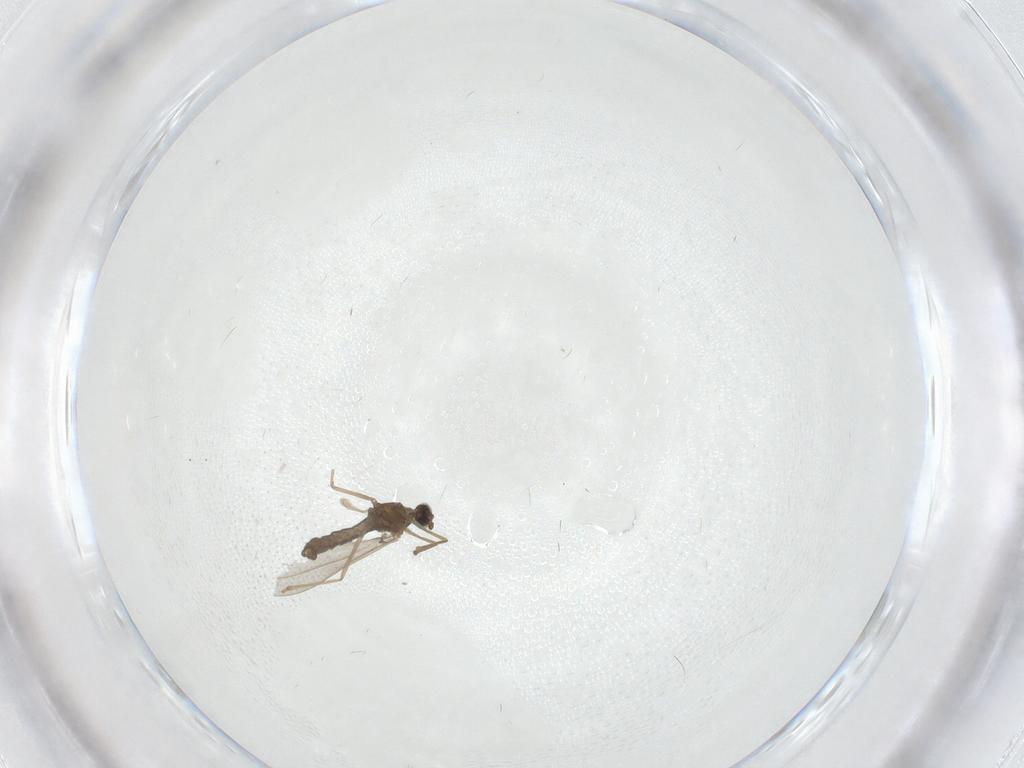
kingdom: Animalia
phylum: Arthropoda
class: Insecta
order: Diptera
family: Cecidomyiidae
